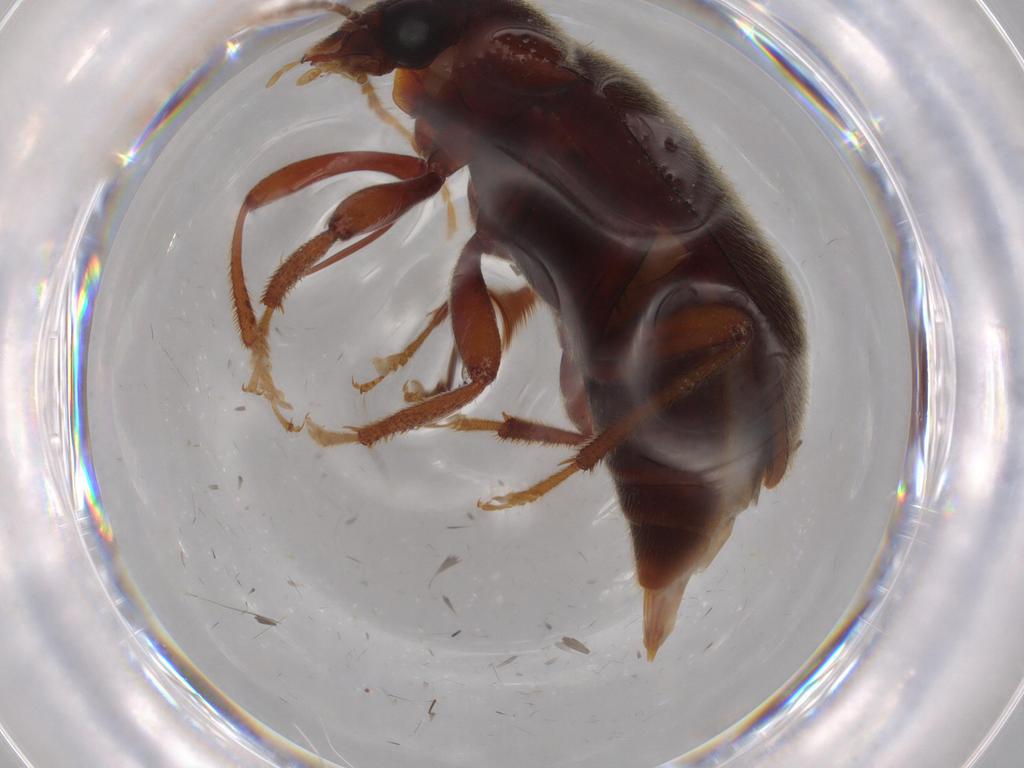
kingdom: Animalia
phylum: Arthropoda
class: Insecta
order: Coleoptera
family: Ptilodactylidae
